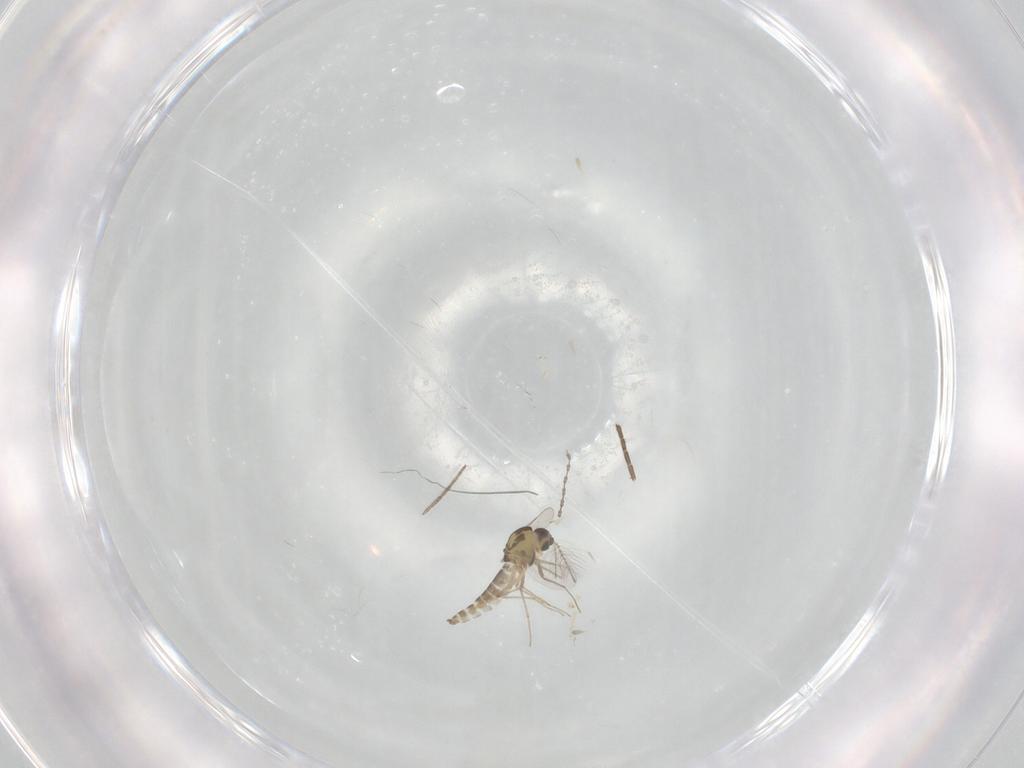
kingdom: Animalia
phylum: Arthropoda
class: Insecta
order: Diptera
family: Chironomidae
